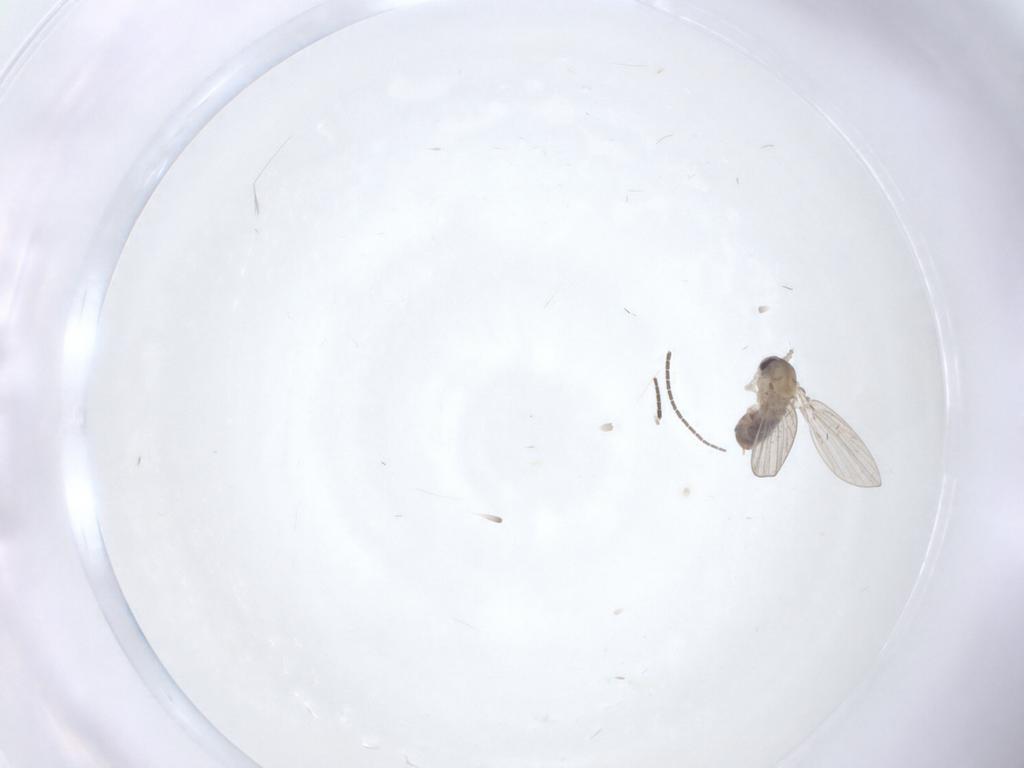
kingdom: Animalia
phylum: Arthropoda
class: Insecta
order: Diptera
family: Psychodidae
